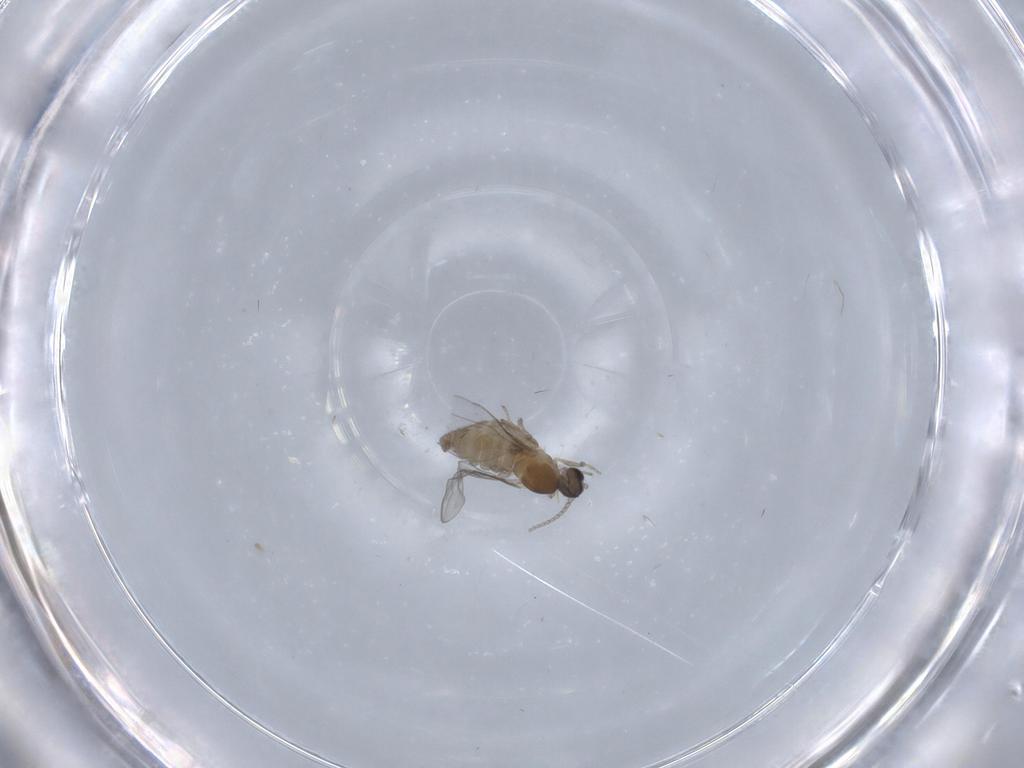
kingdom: Animalia
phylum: Arthropoda
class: Insecta
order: Diptera
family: Cecidomyiidae
